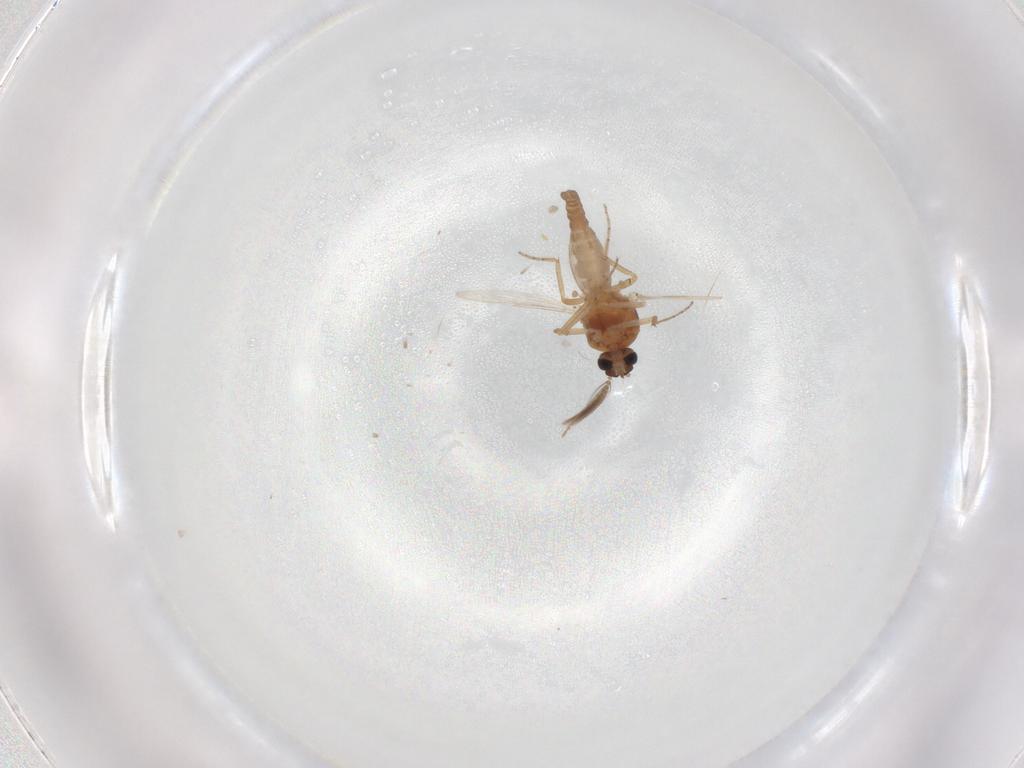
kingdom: Animalia
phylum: Arthropoda
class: Insecta
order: Diptera
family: Ceratopogonidae
